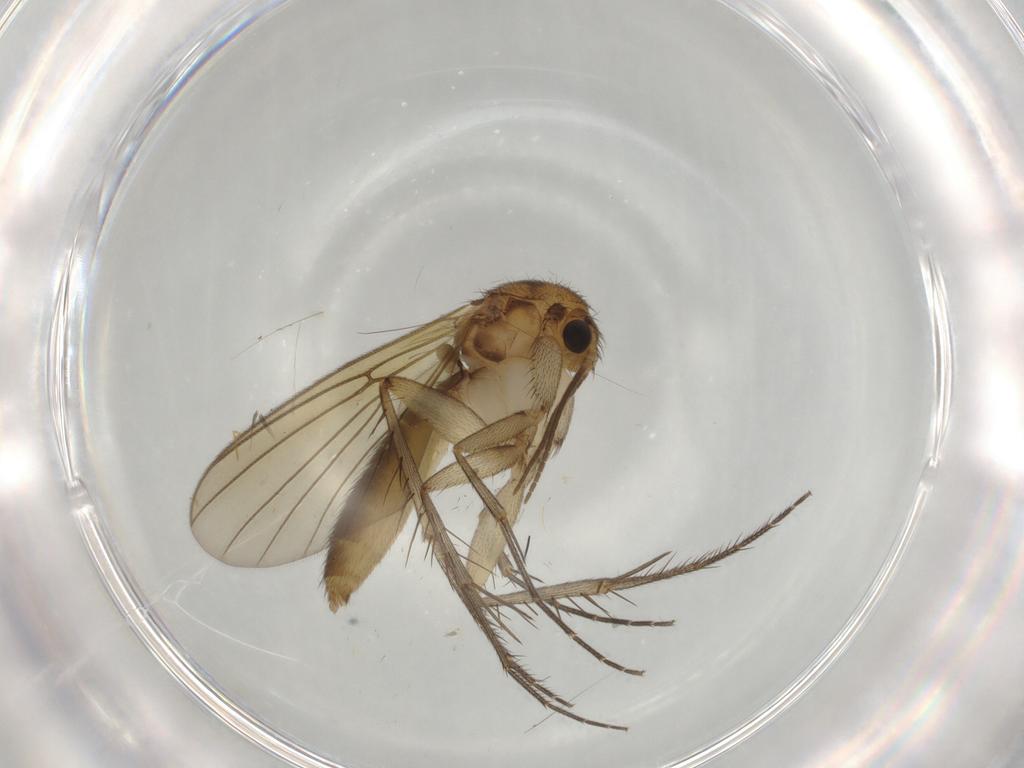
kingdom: Animalia
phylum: Arthropoda
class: Insecta
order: Diptera
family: Mycetophilidae
